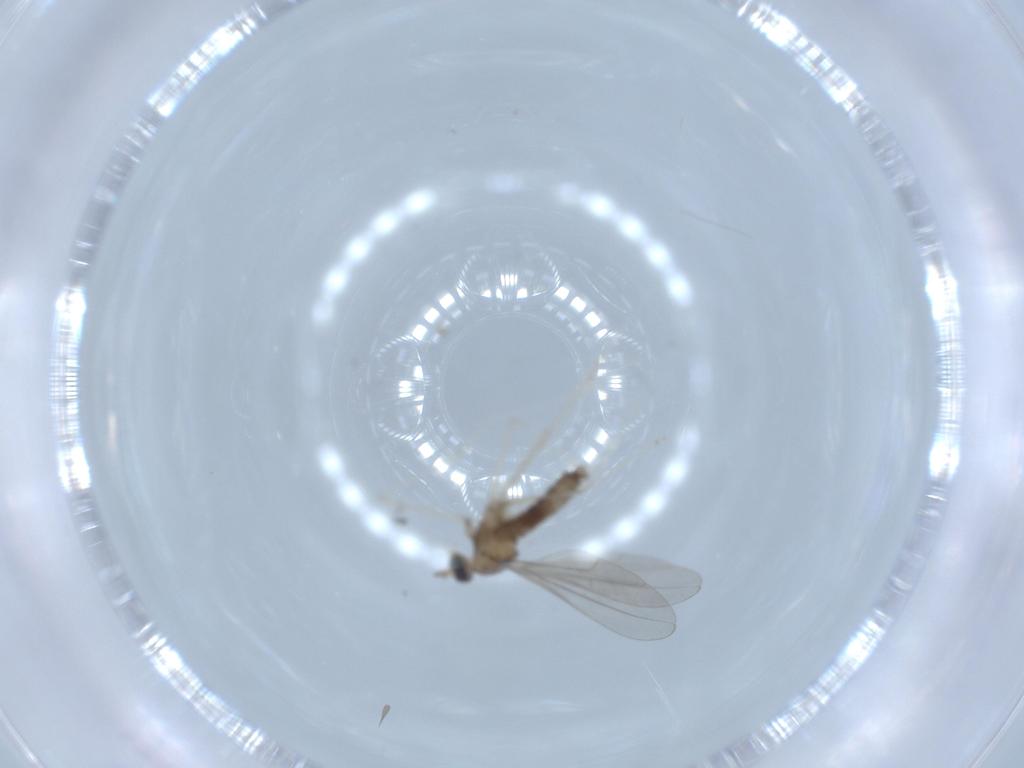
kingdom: Animalia
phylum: Arthropoda
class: Insecta
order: Diptera
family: Cecidomyiidae
